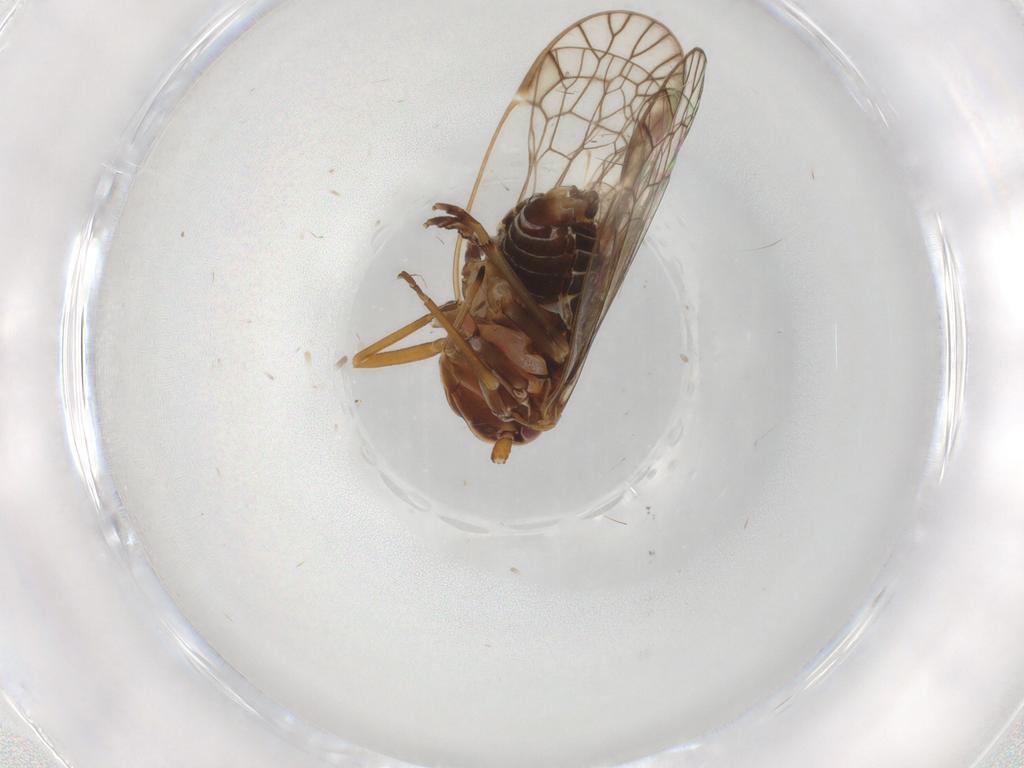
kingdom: Animalia
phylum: Arthropoda
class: Insecta
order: Hemiptera
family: Kinnaridae
